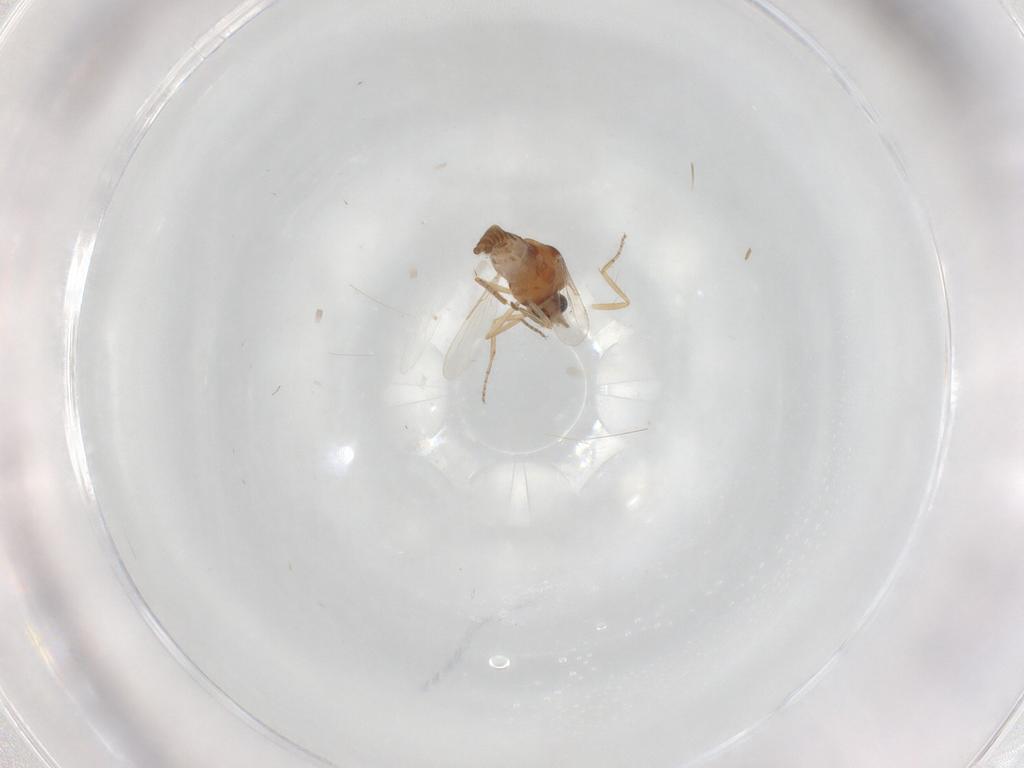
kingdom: Animalia
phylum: Arthropoda
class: Insecta
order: Diptera
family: Ceratopogonidae
